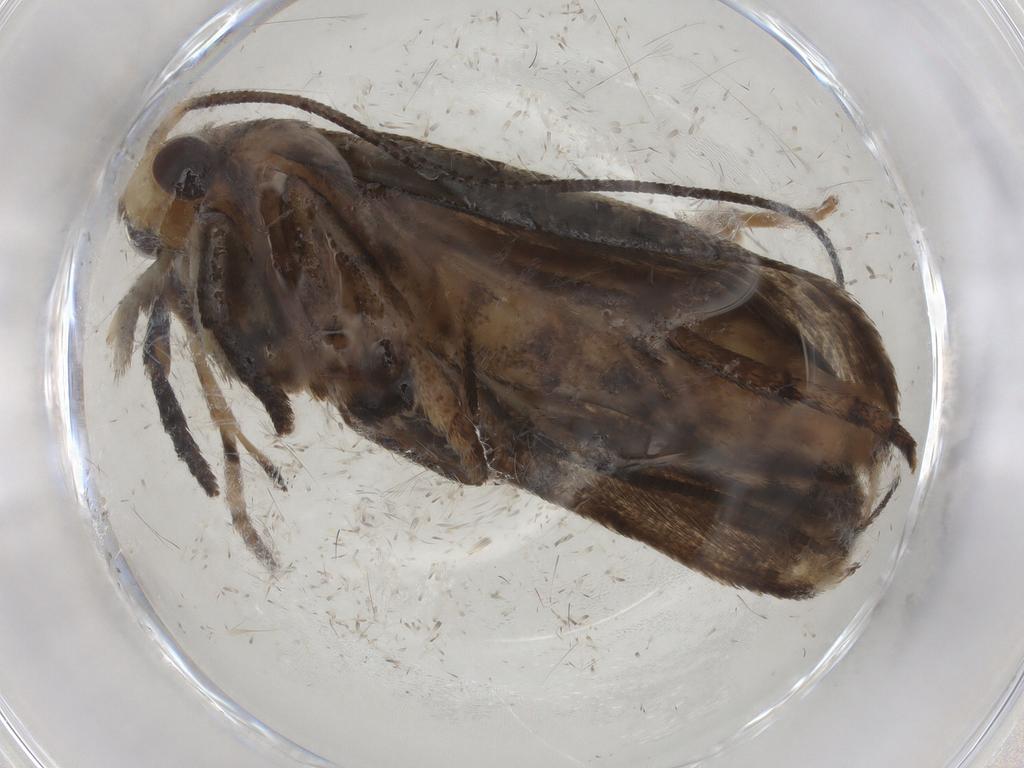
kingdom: Animalia
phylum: Arthropoda
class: Insecta
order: Lepidoptera
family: Yponomeutidae
